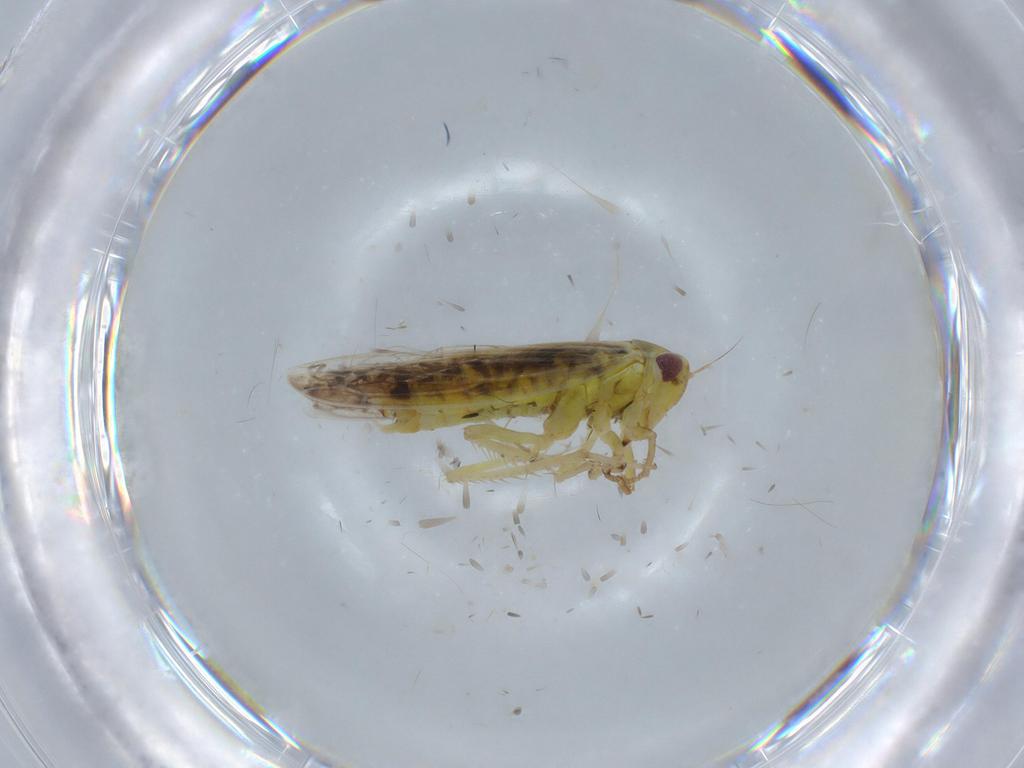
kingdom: Animalia
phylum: Arthropoda
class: Insecta
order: Hemiptera
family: Cicadellidae
